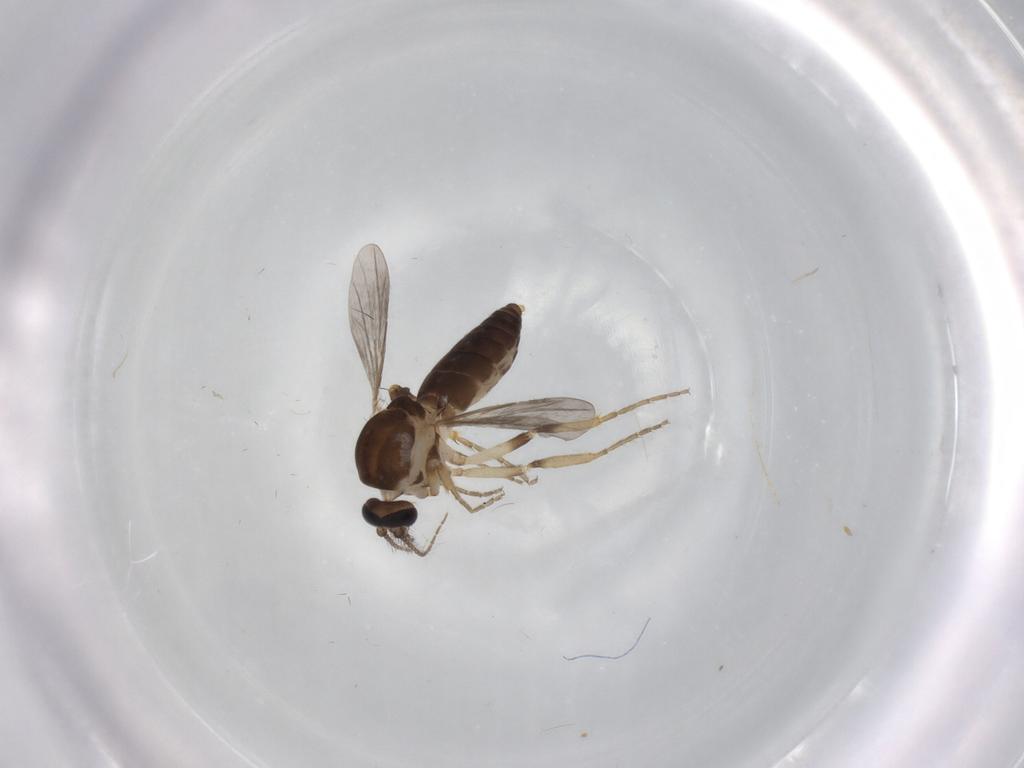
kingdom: Animalia
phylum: Arthropoda
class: Insecta
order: Diptera
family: Ceratopogonidae
